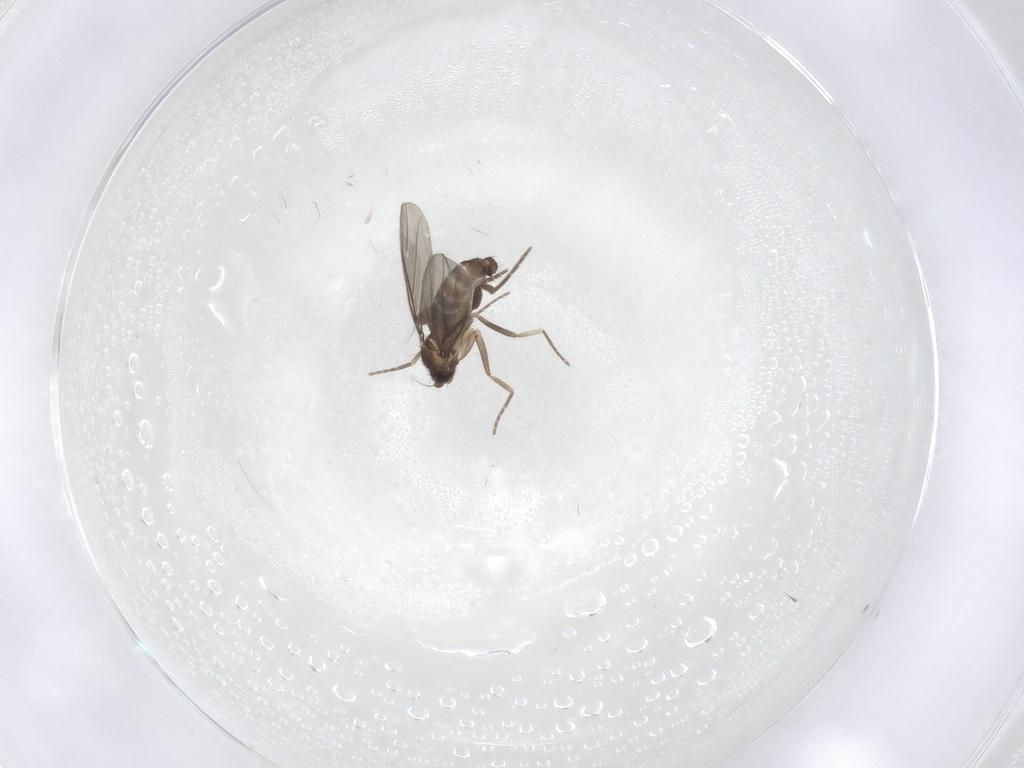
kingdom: Animalia
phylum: Arthropoda
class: Insecta
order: Diptera
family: Phoridae
